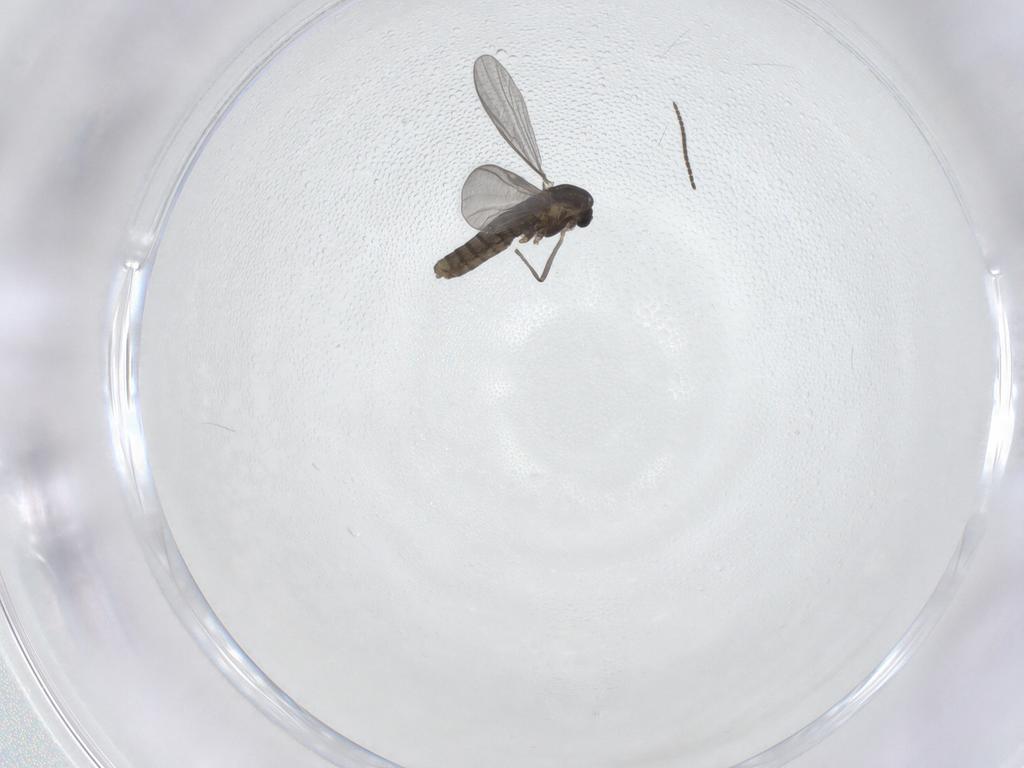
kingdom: Animalia
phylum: Arthropoda
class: Insecta
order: Diptera
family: Chironomidae
